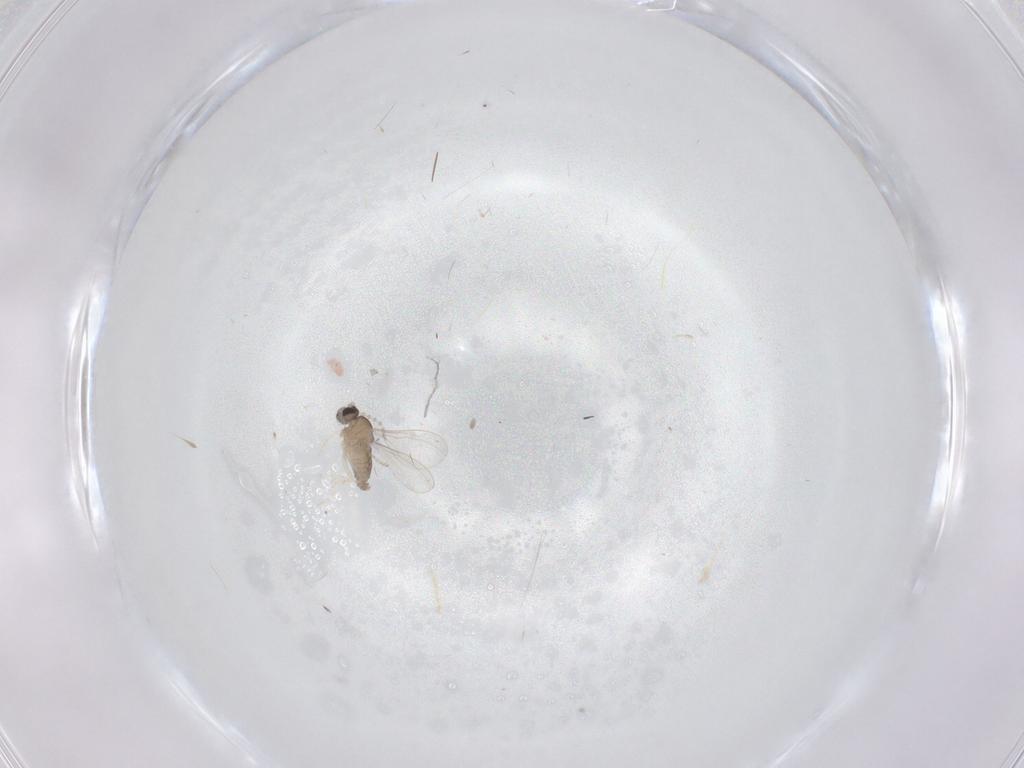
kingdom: Animalia
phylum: Arthropoda
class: Insecta
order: Diptera
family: Cecidomyiidae
